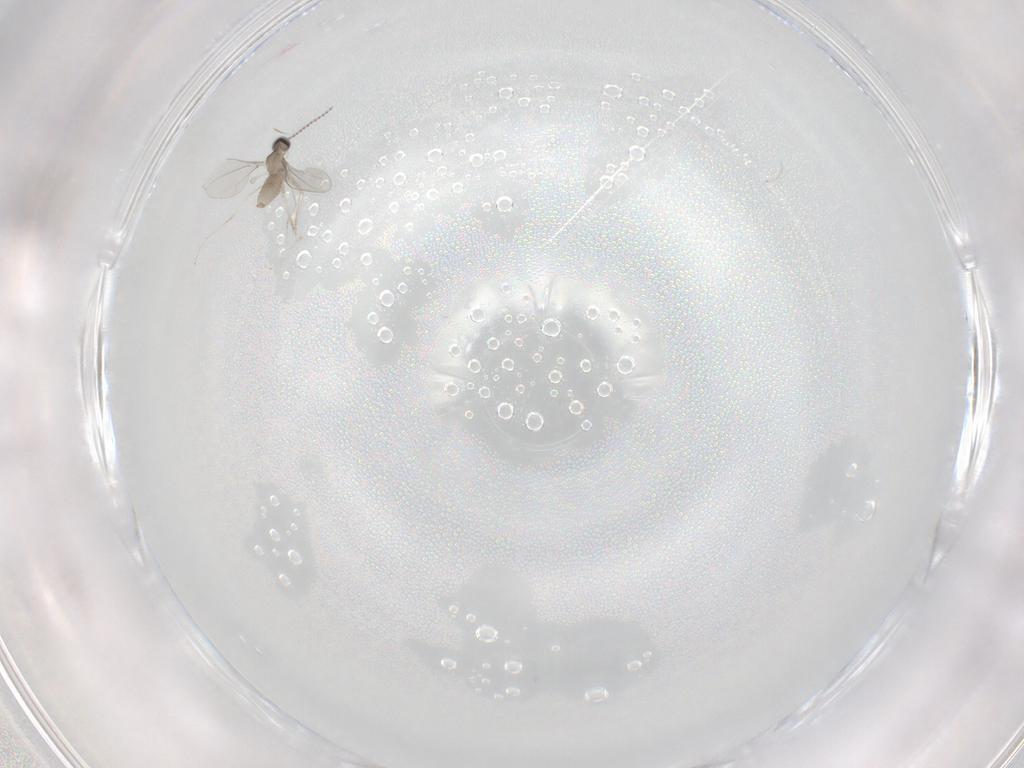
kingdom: Animalia
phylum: Arthropoda
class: Insecta
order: Diptera
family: Cecidomyiidae
